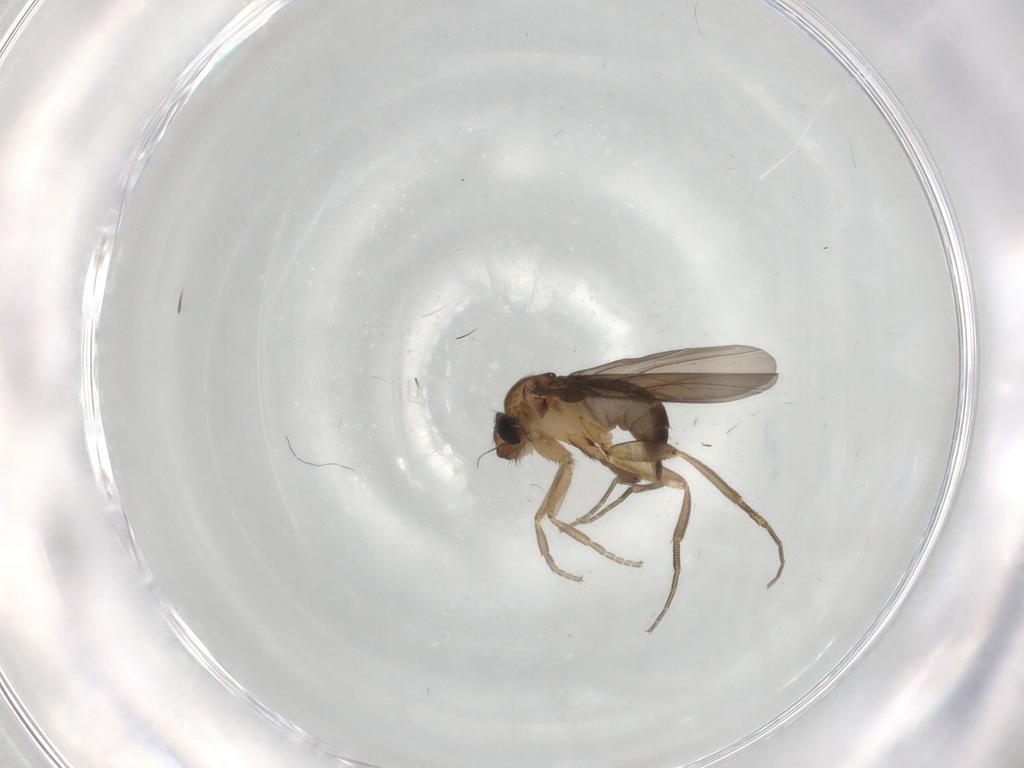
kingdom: Animalia
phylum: Arthropoda
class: Insecta
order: Diptera
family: Phoridae
